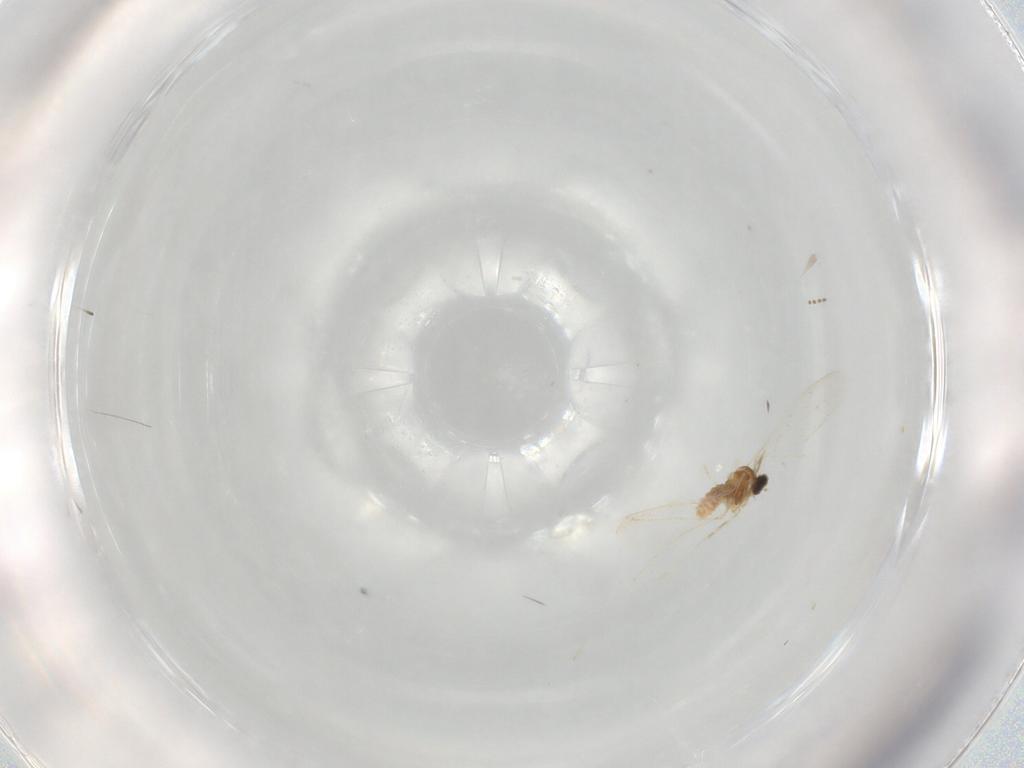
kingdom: Animalia
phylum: Arthropoda
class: Insecta
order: Diptera
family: Cecidomyiidae
